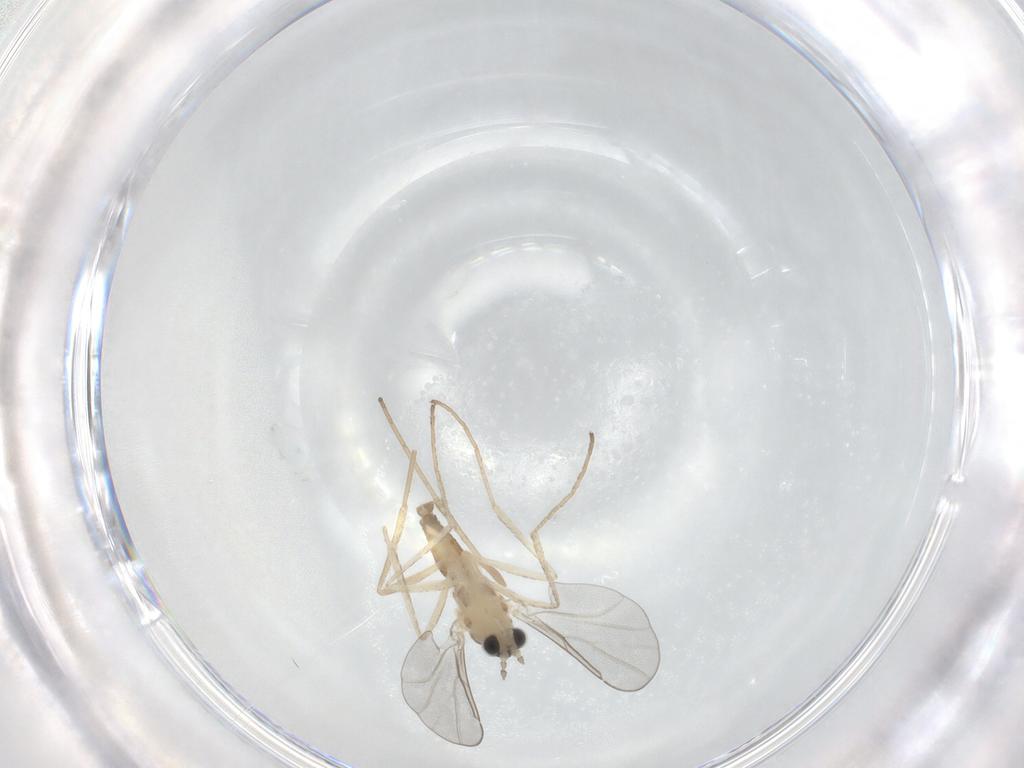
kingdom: Animalia
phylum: Arthropoda
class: Insecta
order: Diptera
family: Cecidomyiidae
